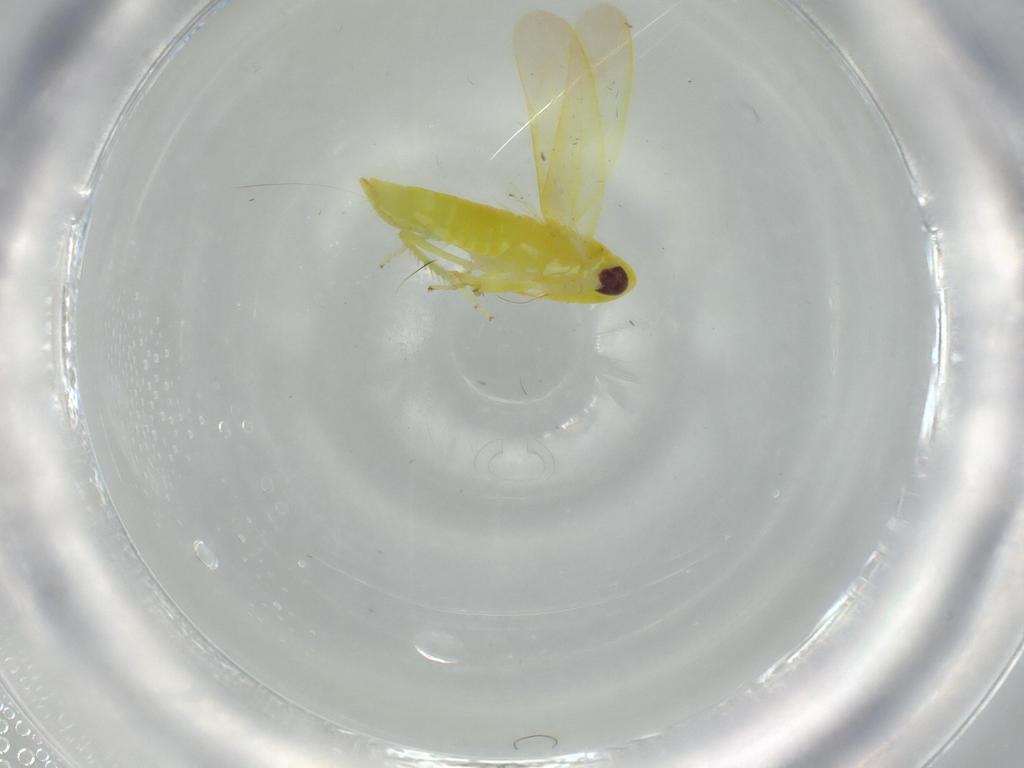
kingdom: Animalia
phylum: Arthropoda
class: Insecta
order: Hemiptera
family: Cicadellidae
